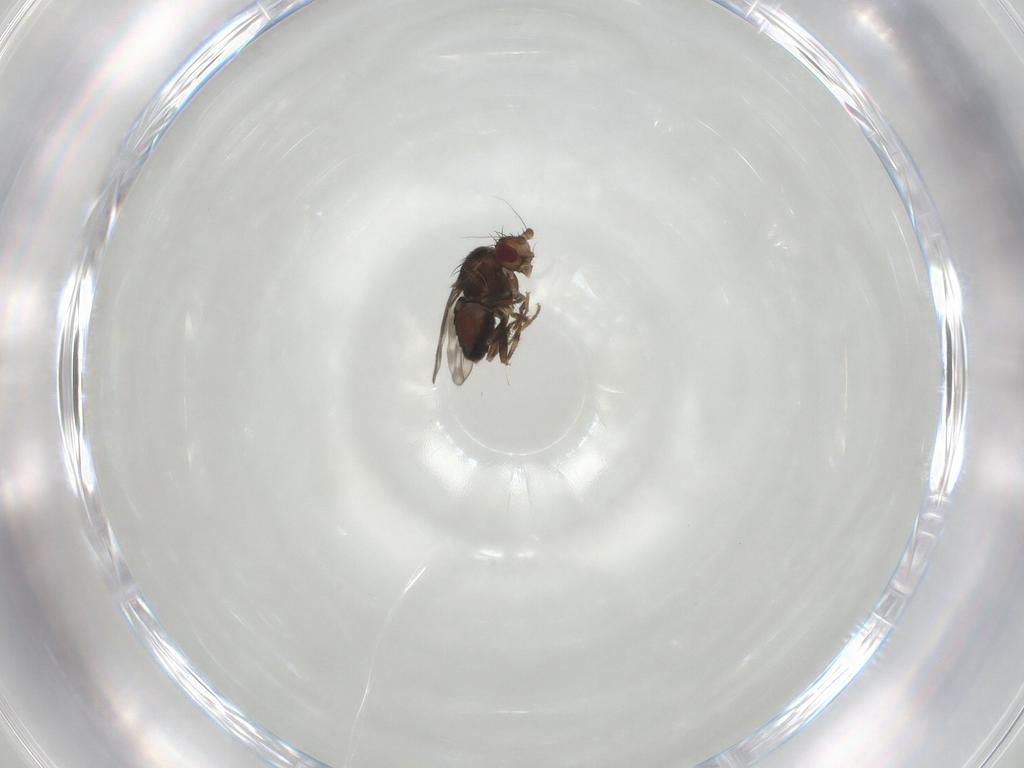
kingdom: Animalia
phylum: Arthropoda
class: Insecta
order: Diptera
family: Sphaeroceridae
